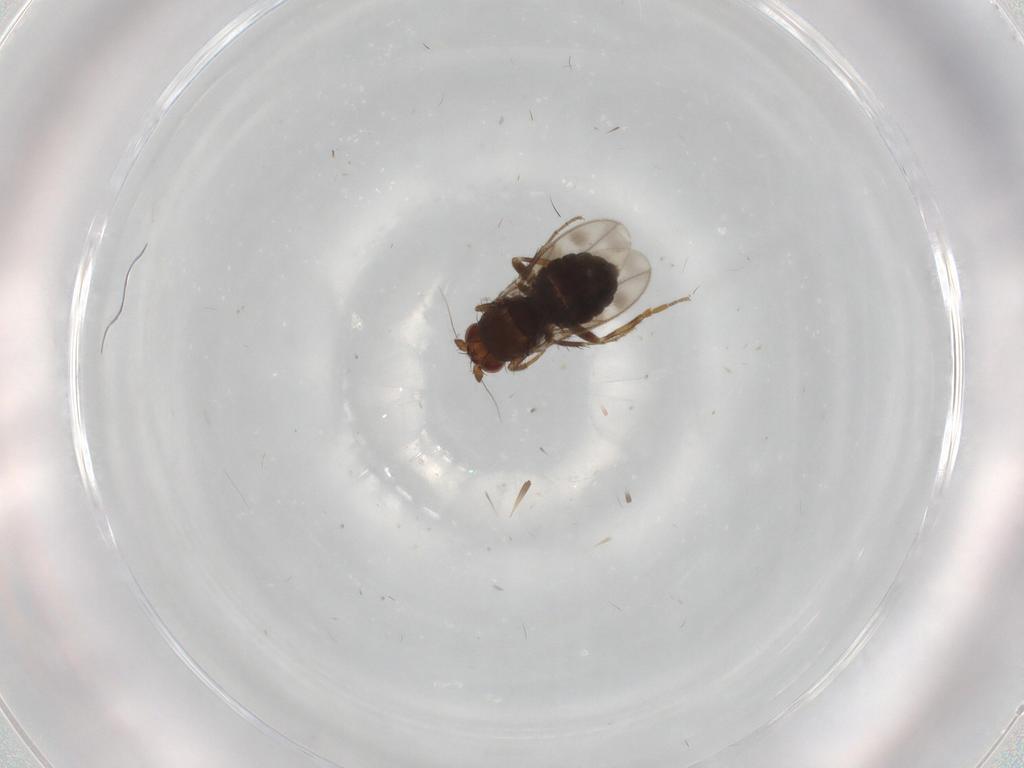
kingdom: Animalia
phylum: Arthropoda
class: Insecta
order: Diptera
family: Sphaeroceridae
